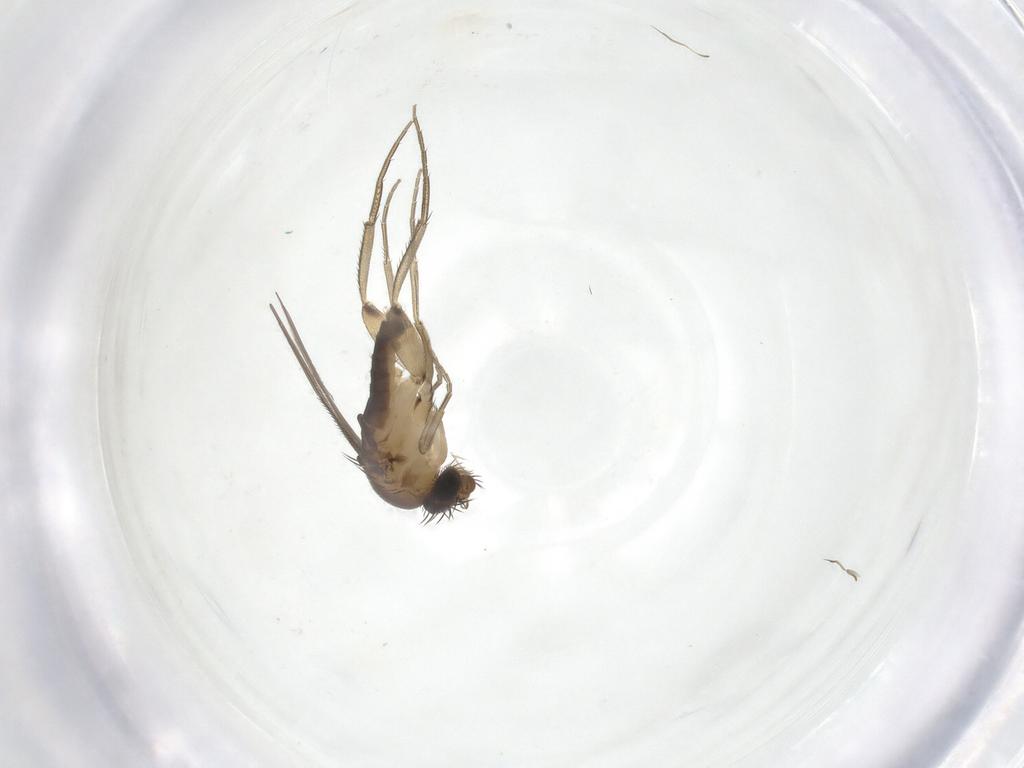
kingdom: Animalia
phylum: Arthropoda
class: Insecta
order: Diptera
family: Phoridae
